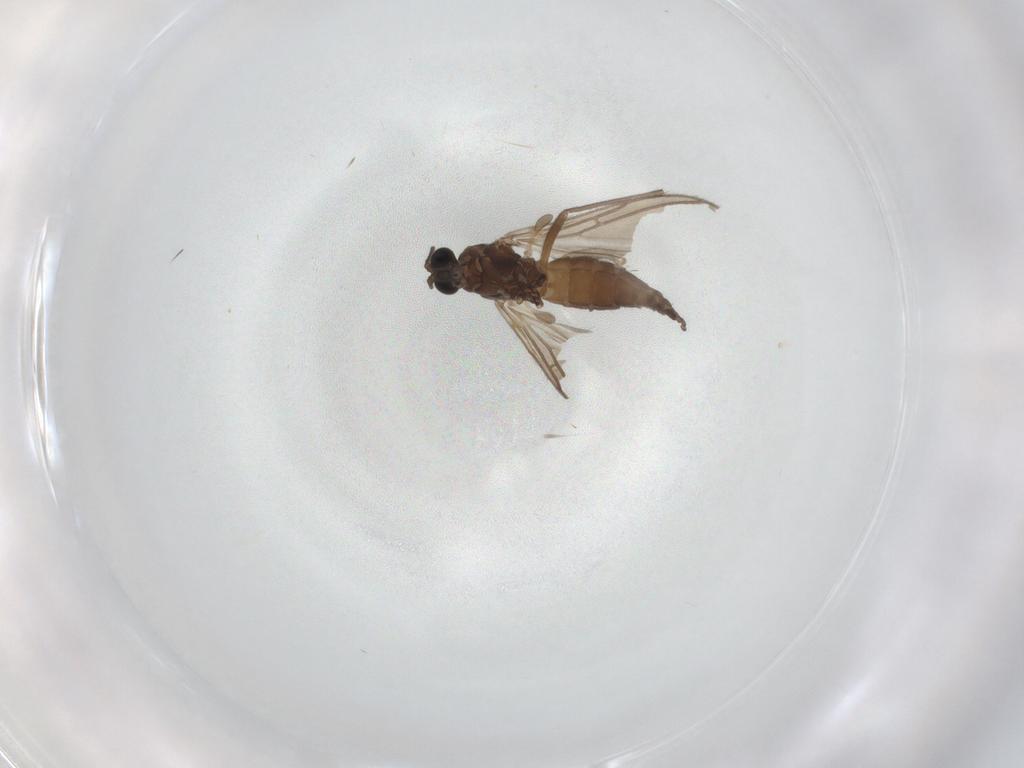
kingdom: Animalia
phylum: Arthropoda
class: Insecta
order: Diptera
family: Sciaridae
